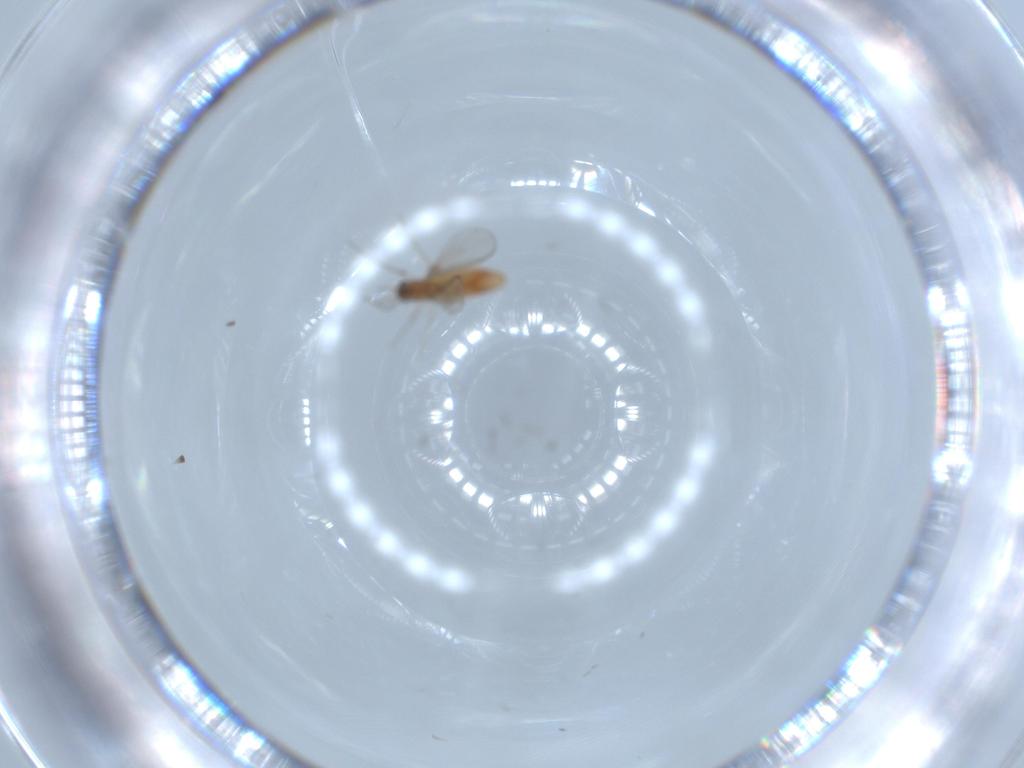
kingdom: Animalia
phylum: Arthropoda
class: Insecta
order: Diptera
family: Chironomidae
